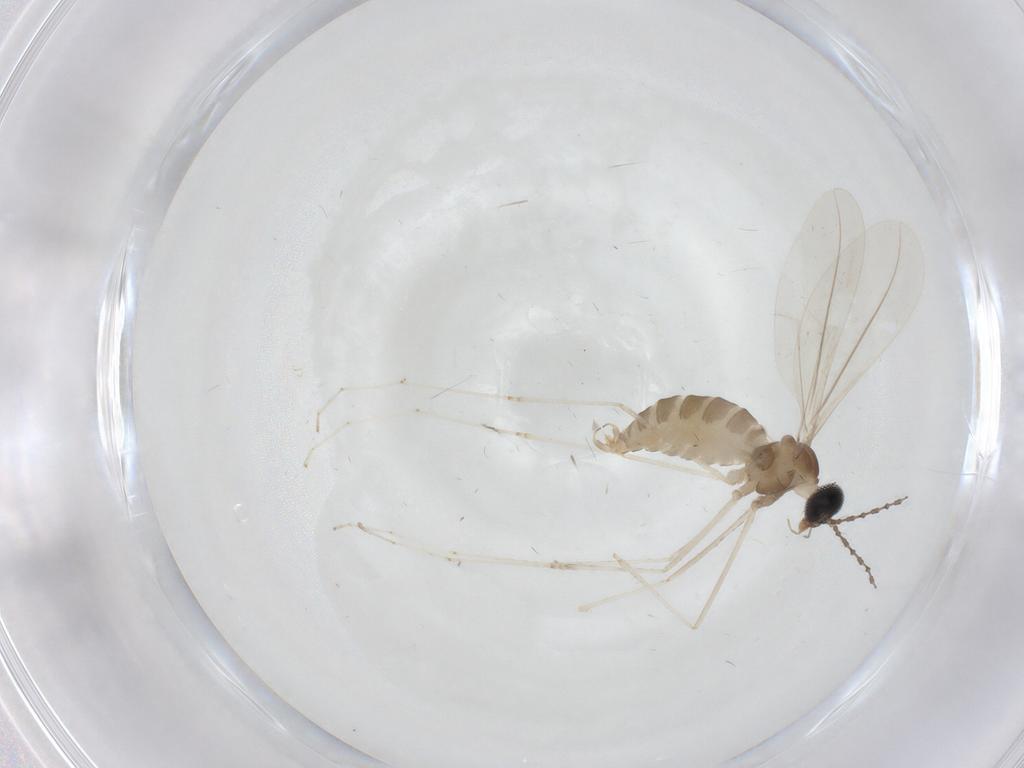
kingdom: Animalia
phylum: Arthropoda
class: Insecta
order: Diptera
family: Cecidomyiidae
